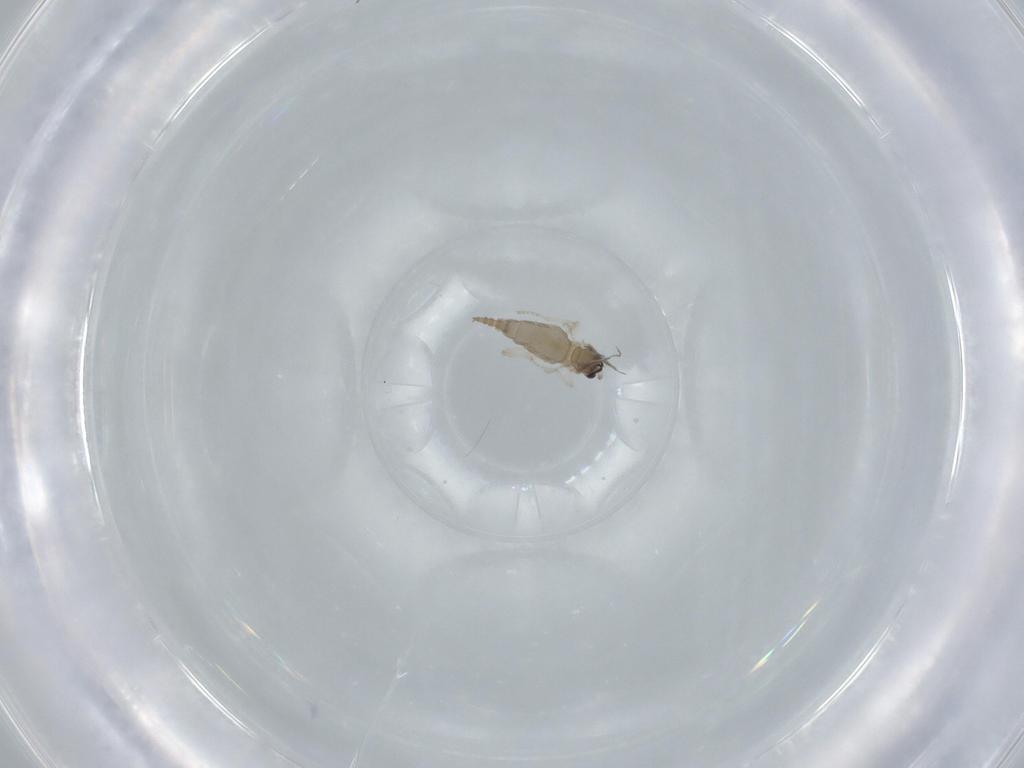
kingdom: Animalia
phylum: Arthropoda
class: Insecta
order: Diptera
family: Cecidomyiidae
